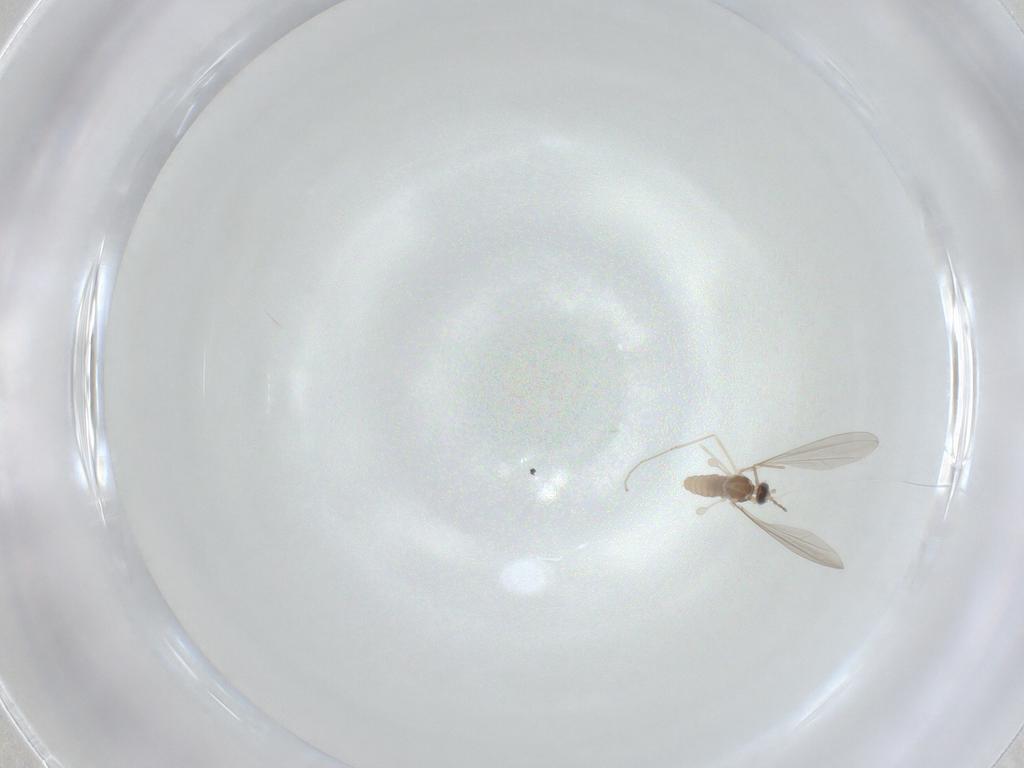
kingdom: Animalia
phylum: Arthropoda
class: Insecta
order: Diptera
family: Cecidomyiidae
